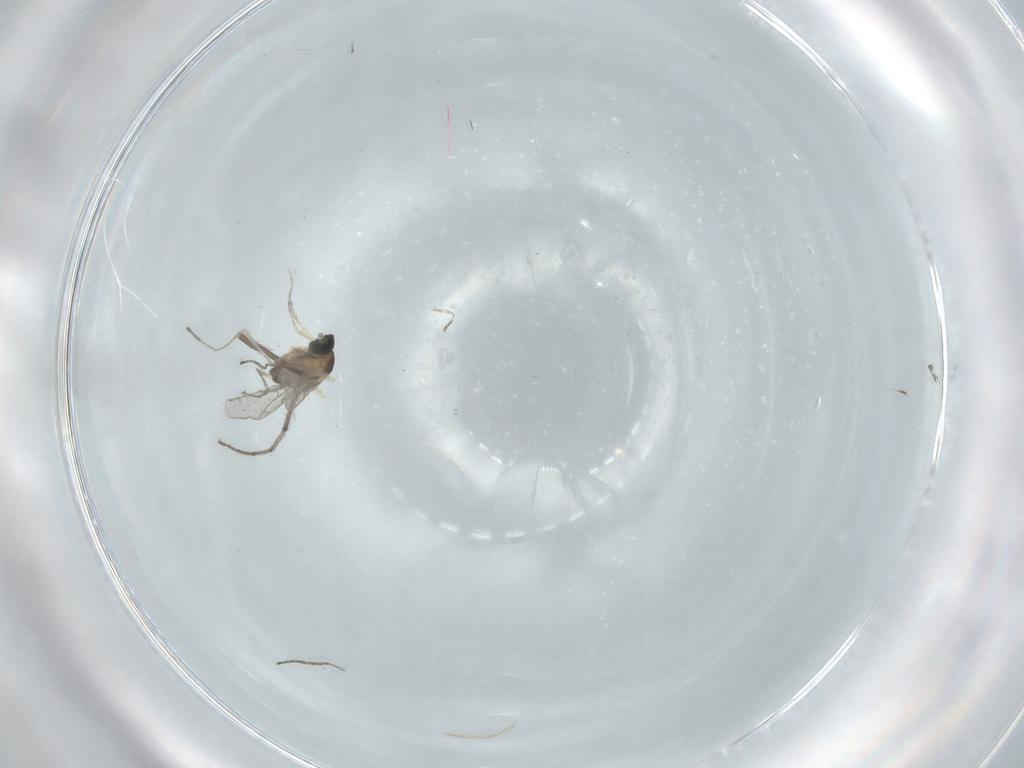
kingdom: Animalia
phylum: Arthropoda
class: Insecta
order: Diptera
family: Cecidomyiidae
